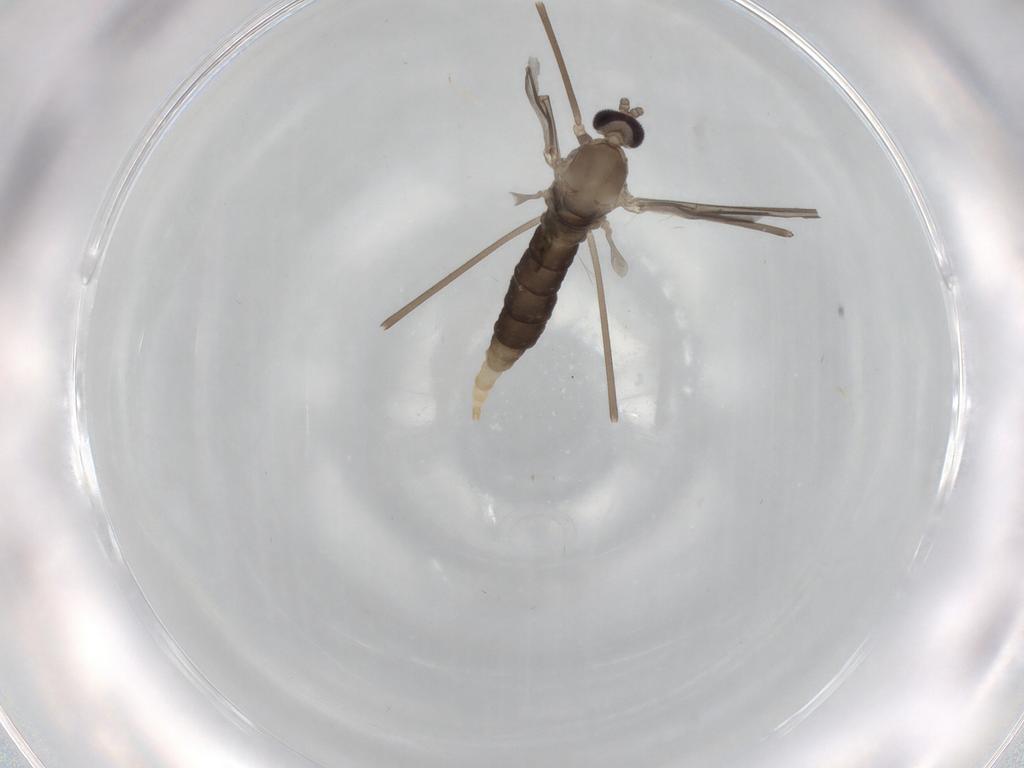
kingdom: Animalia
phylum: Arthropoda
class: Insecta
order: Diptera
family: Cecidomyiidae
